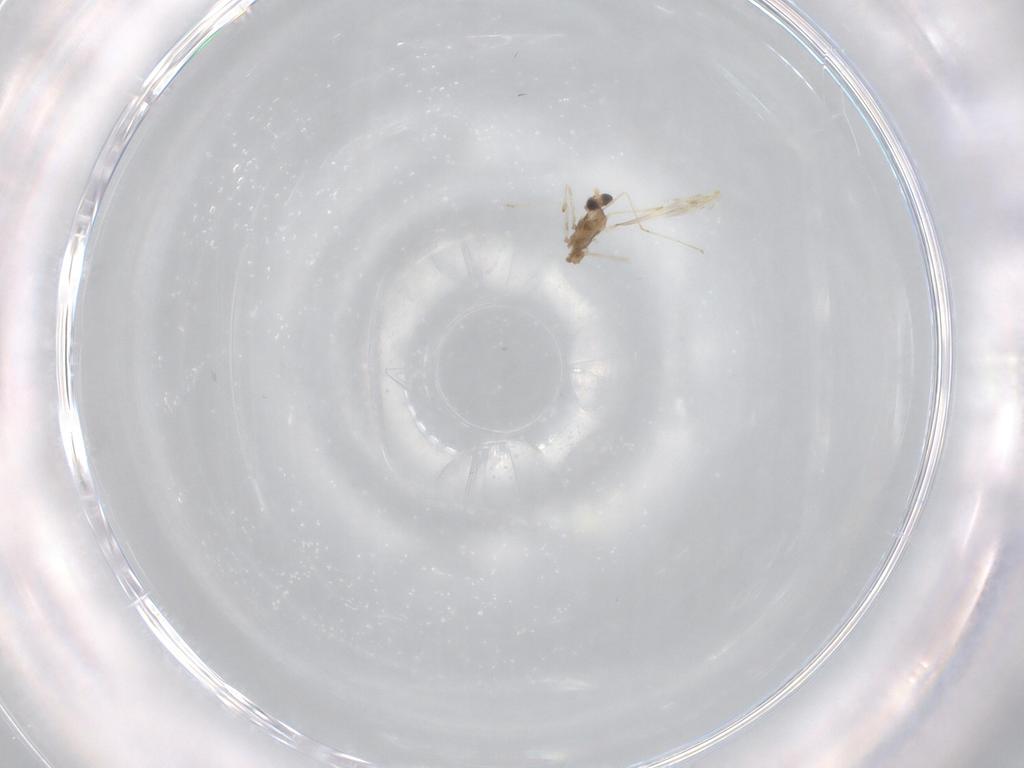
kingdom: Animalia
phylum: Arthropoda
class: Insecta
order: Diptera
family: Cecidomyiidae
